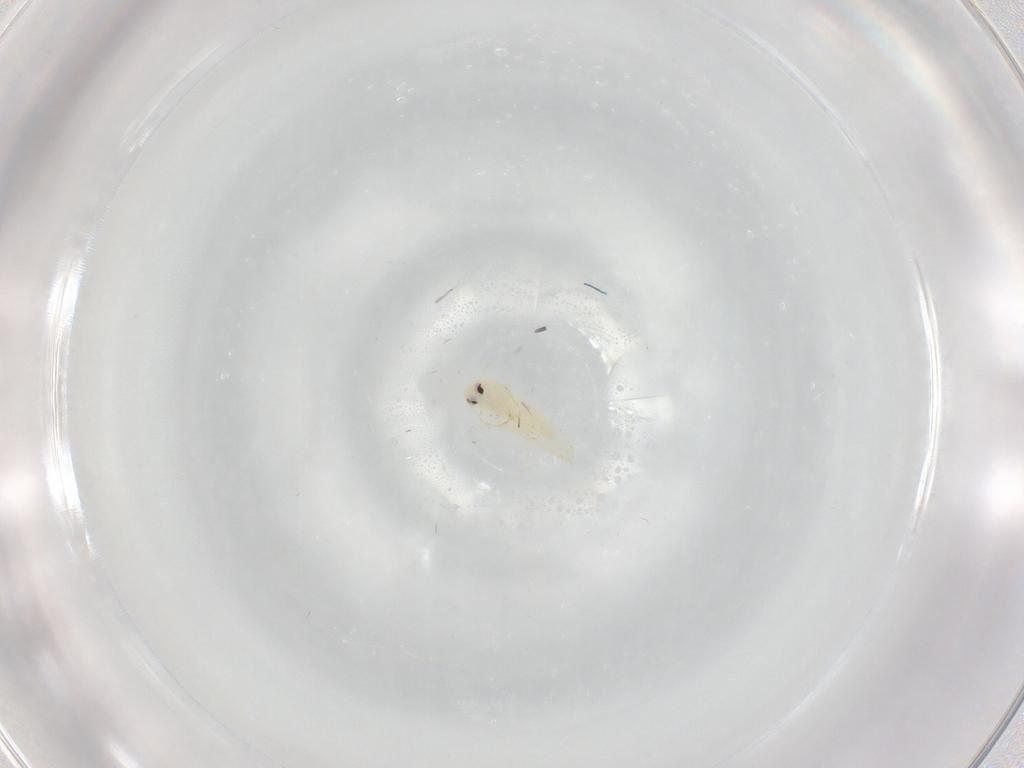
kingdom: Animalia
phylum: Arthropoda
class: Insecta
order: Hemiptera
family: Aleyrodidae
